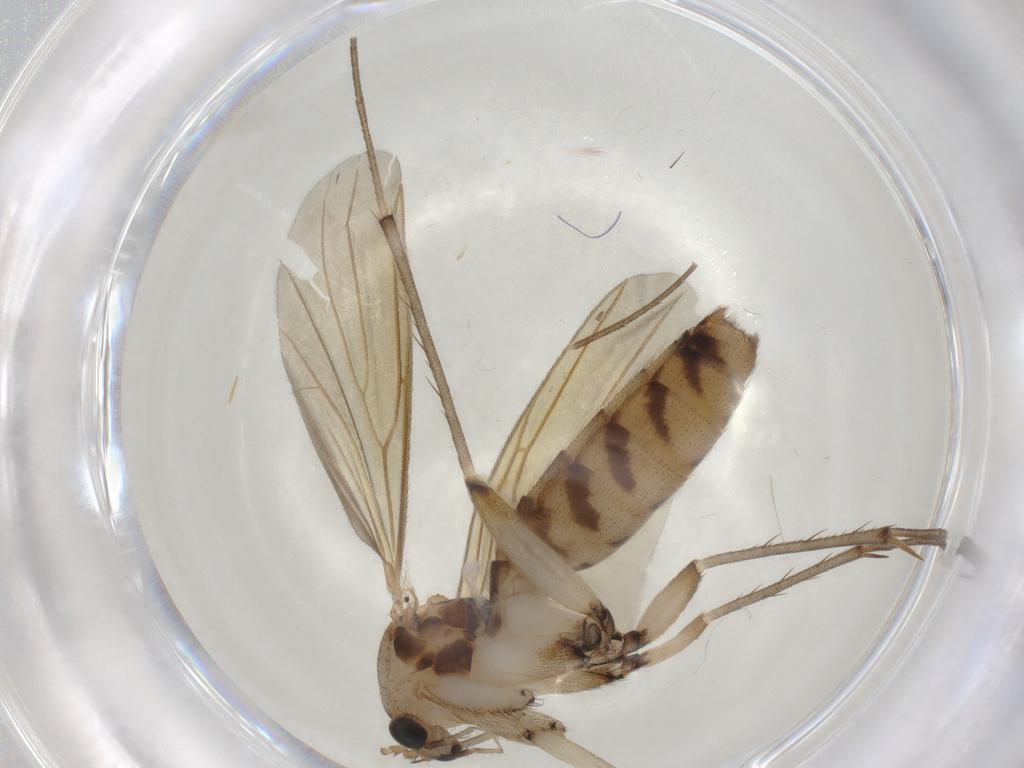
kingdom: Animalia
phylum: Arthropoda
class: Insecta
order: Diptera
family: Mycetophilidae
